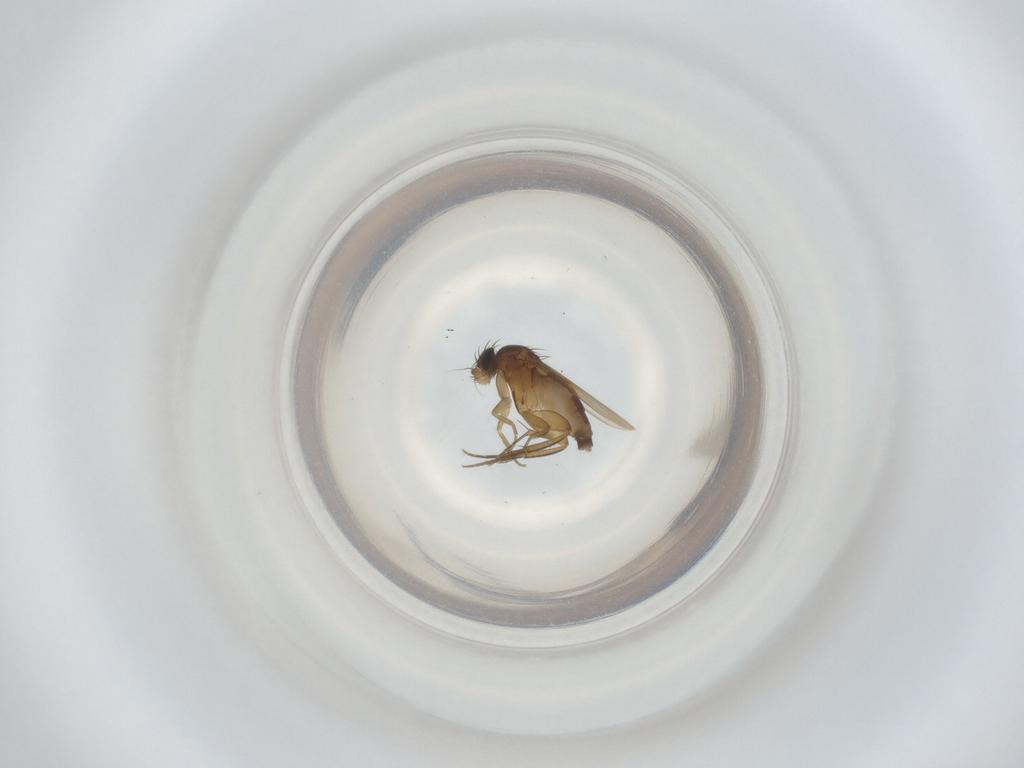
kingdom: Animalia
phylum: Arthropoda
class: Insecta
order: Diptera
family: Phoridae
